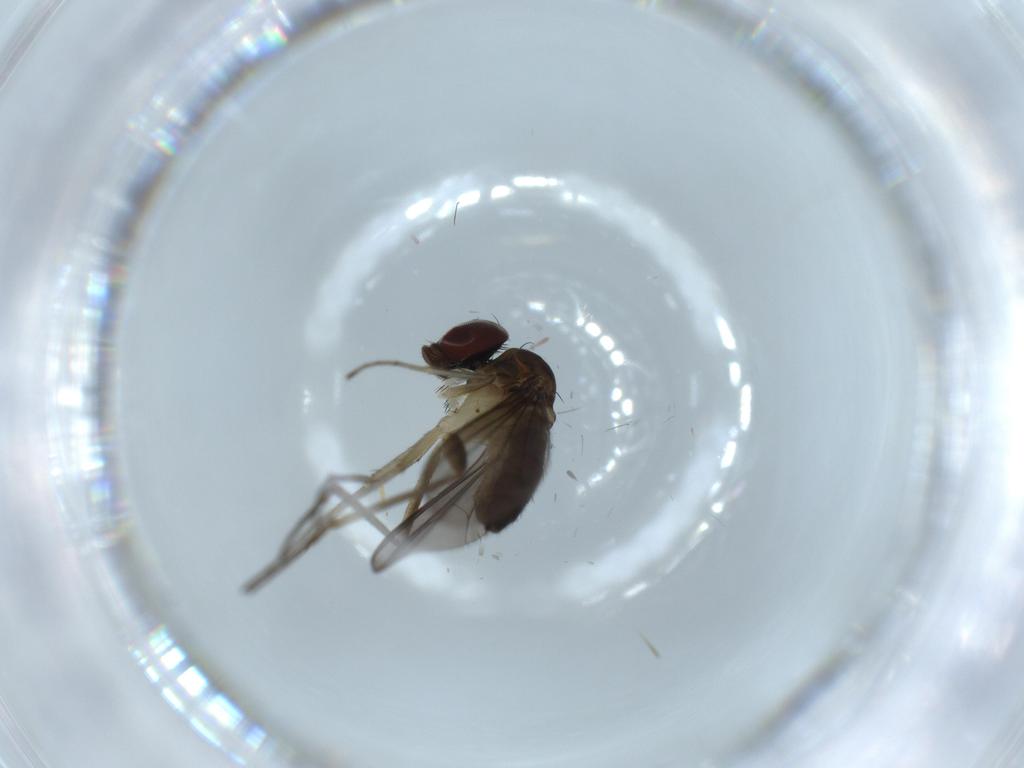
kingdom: Animalia
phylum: Arthropoda
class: Insecta
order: Diptera
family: Dolichopodidae
